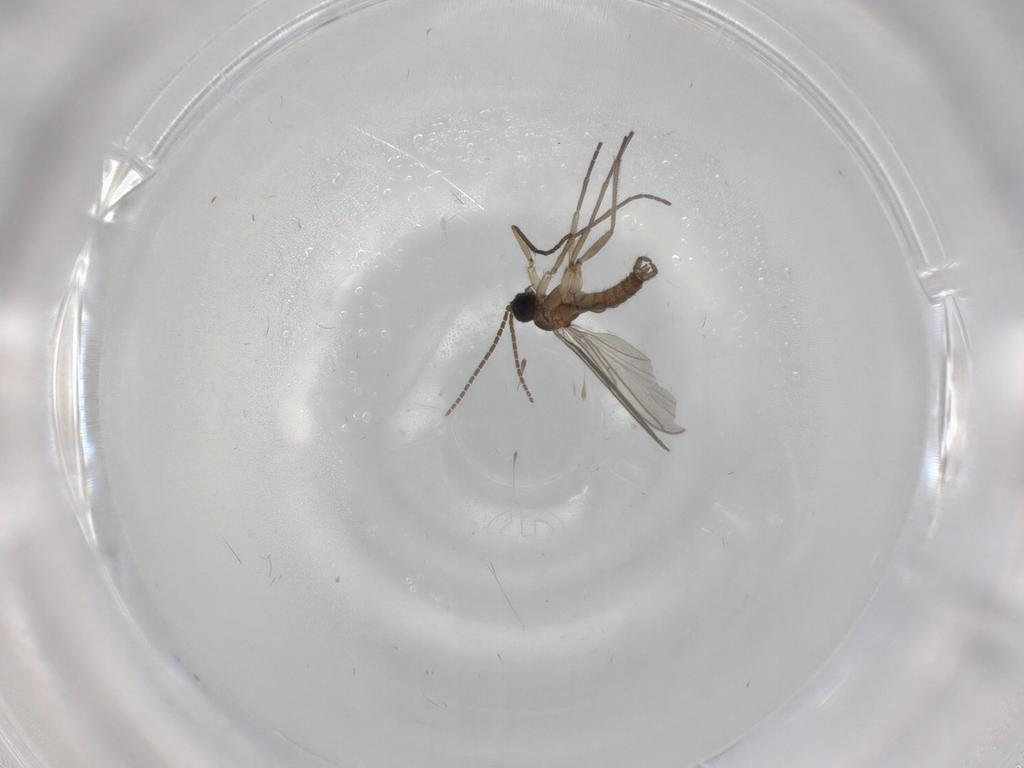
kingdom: Animalia
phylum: Arthropoda
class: Insecta
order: Diptera
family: Sciaridae
